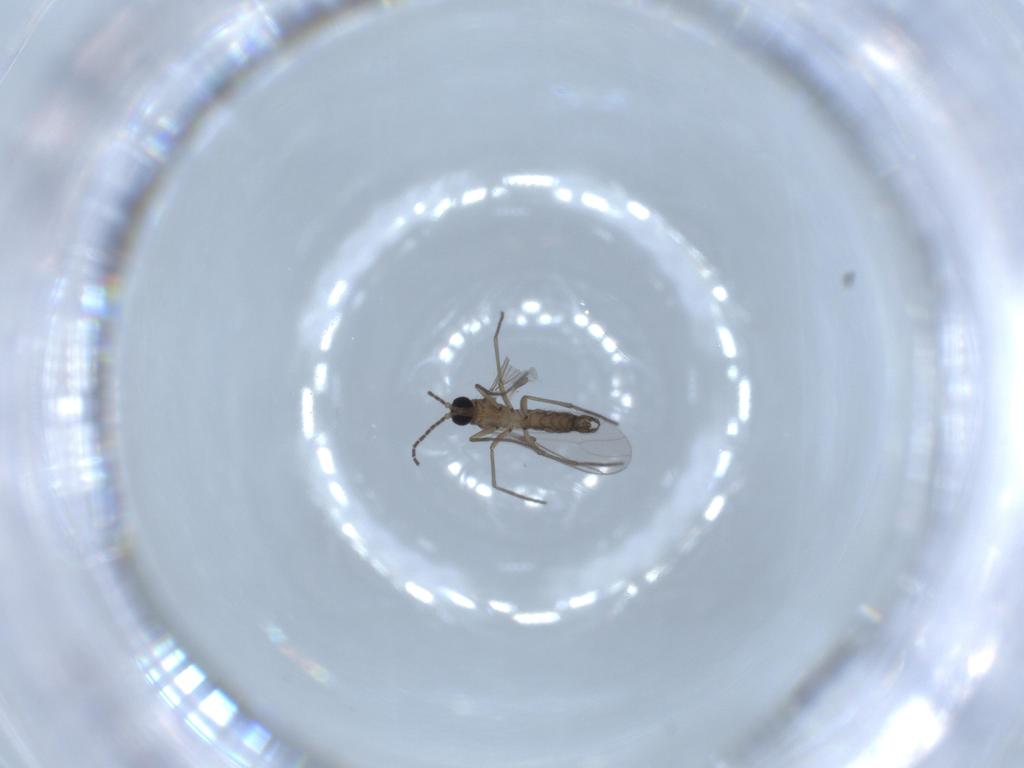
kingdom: Animalia
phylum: Arthropoda
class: Insecta
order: Diptera
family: Sciaridae
